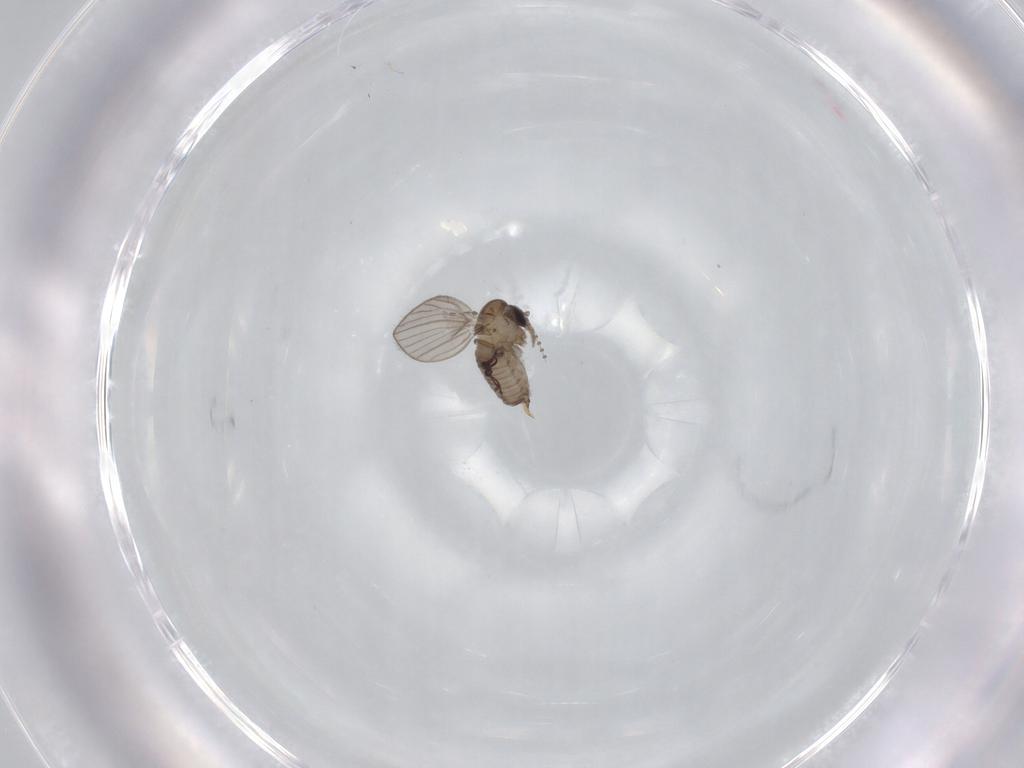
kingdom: Animalia
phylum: Arthropoda
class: Insecta
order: Diptera
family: Psychodidae
